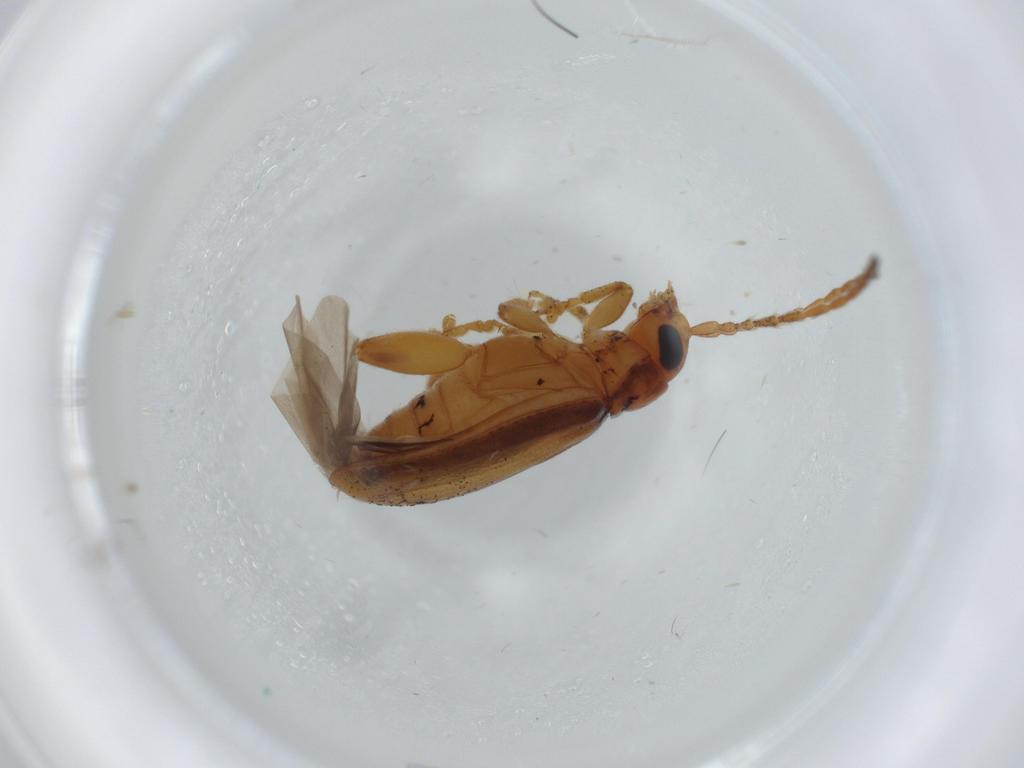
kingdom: Animalia
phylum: Arthropoda
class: Insecta
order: Coleoptera
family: Chrysomelidae
